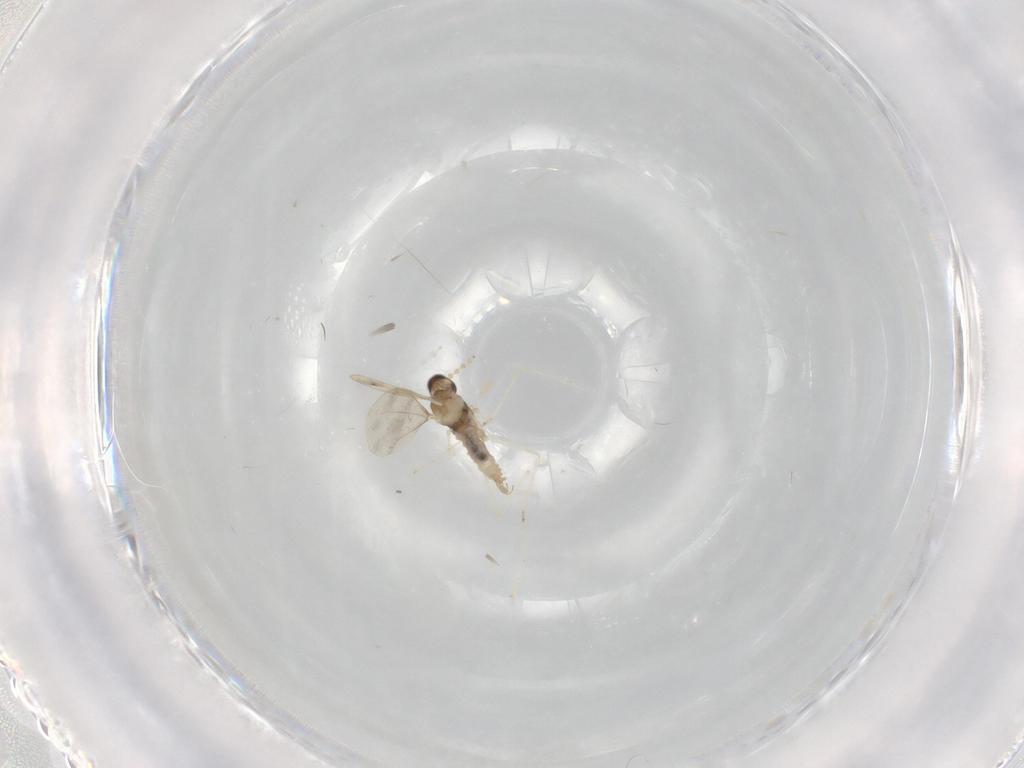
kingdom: Animalia
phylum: Arthropoda
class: Insecta
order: Diptera
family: Cecidomyiidae
